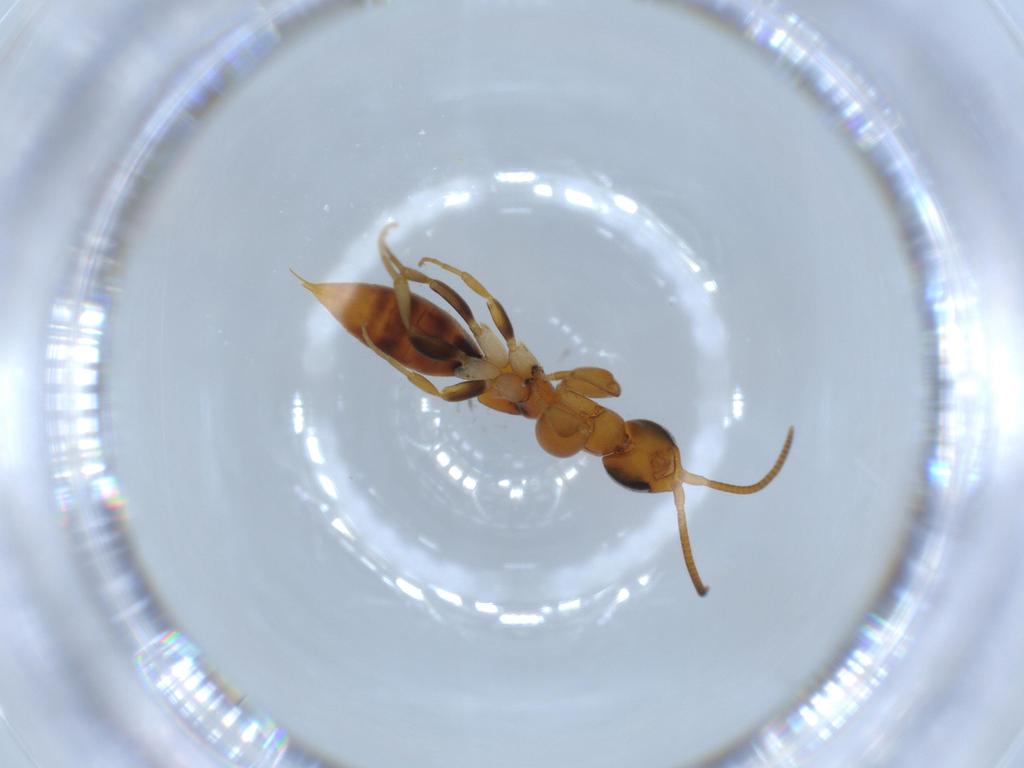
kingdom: Animalia
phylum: Arthropoda
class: Insecta
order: Hymenoptera
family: Sclerogibbidae
